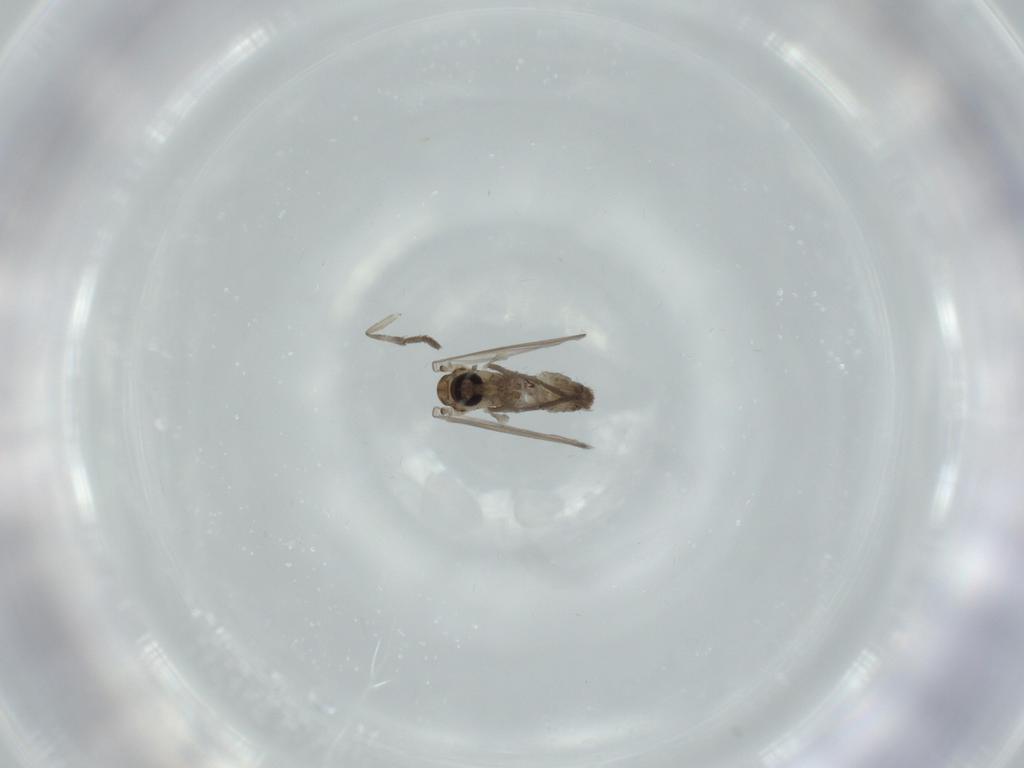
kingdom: Animalia
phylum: Arthropoda
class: Insecta
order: Diptera
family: Psychodidae
